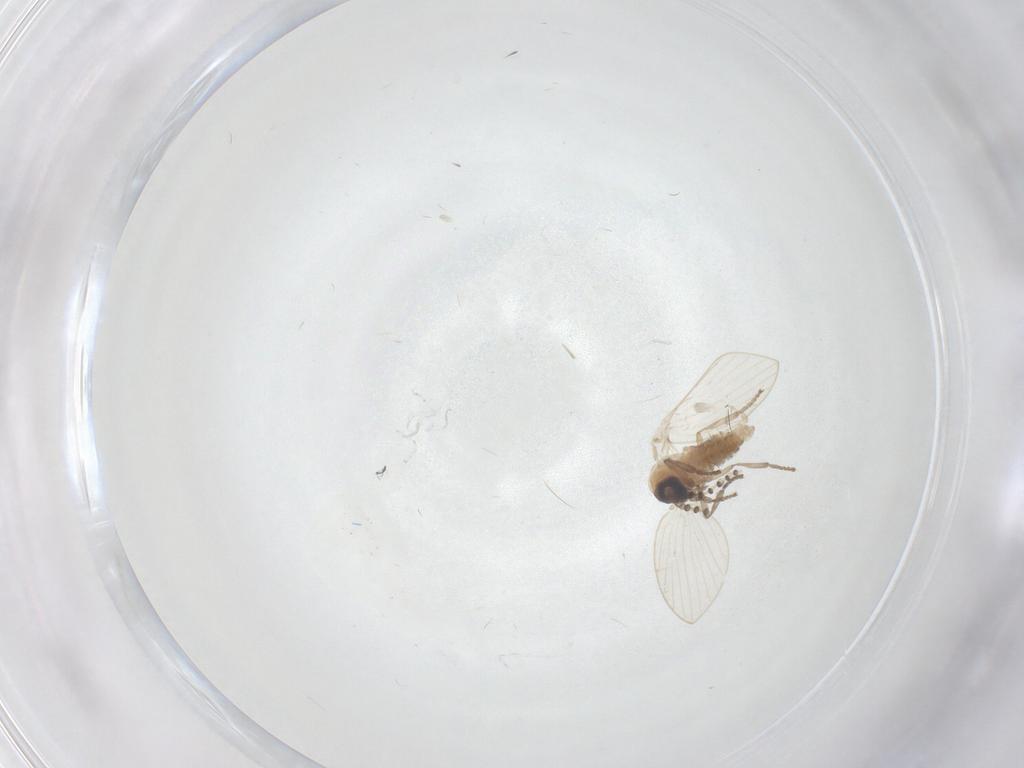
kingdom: Animalia
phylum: Arthropoda
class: Insecta
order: Diptera
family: Psychodidae
